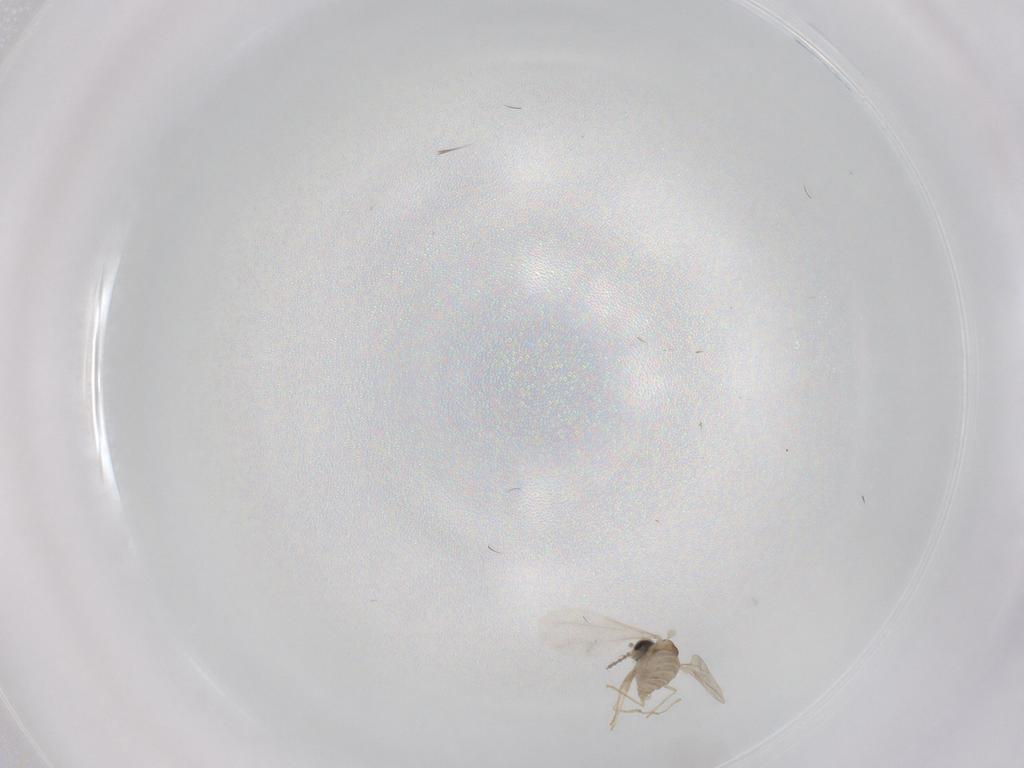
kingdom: Animalia
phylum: Arthropoda
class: Insecta
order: Diptera
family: Cecidomyiidae
